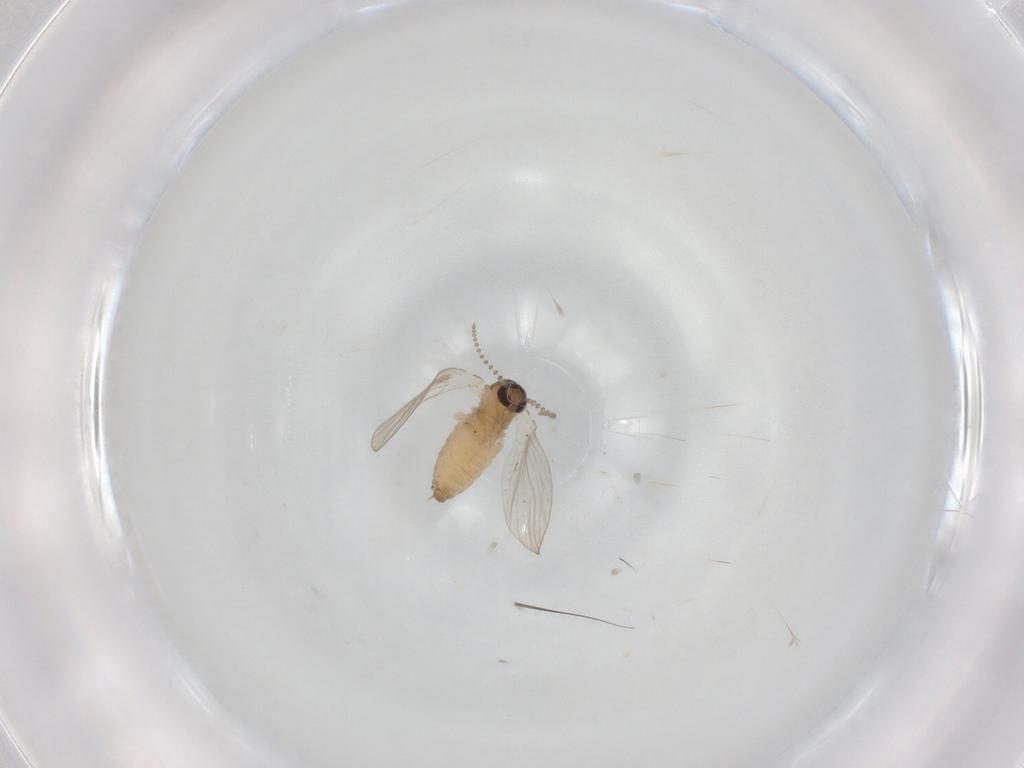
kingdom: Animalia
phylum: Arthropoda
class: Insecta
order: Diptera
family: Psychodidae
